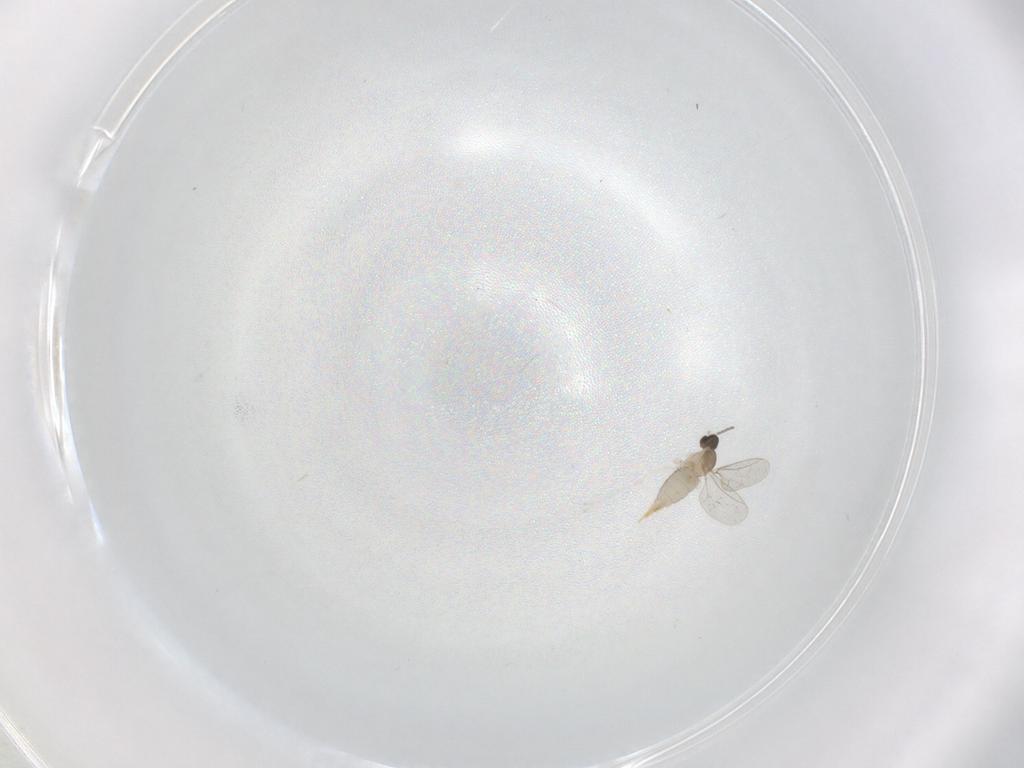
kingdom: Animalia
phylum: Arthropoda
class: Insecta
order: Diptera
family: Cecidomyiidae
